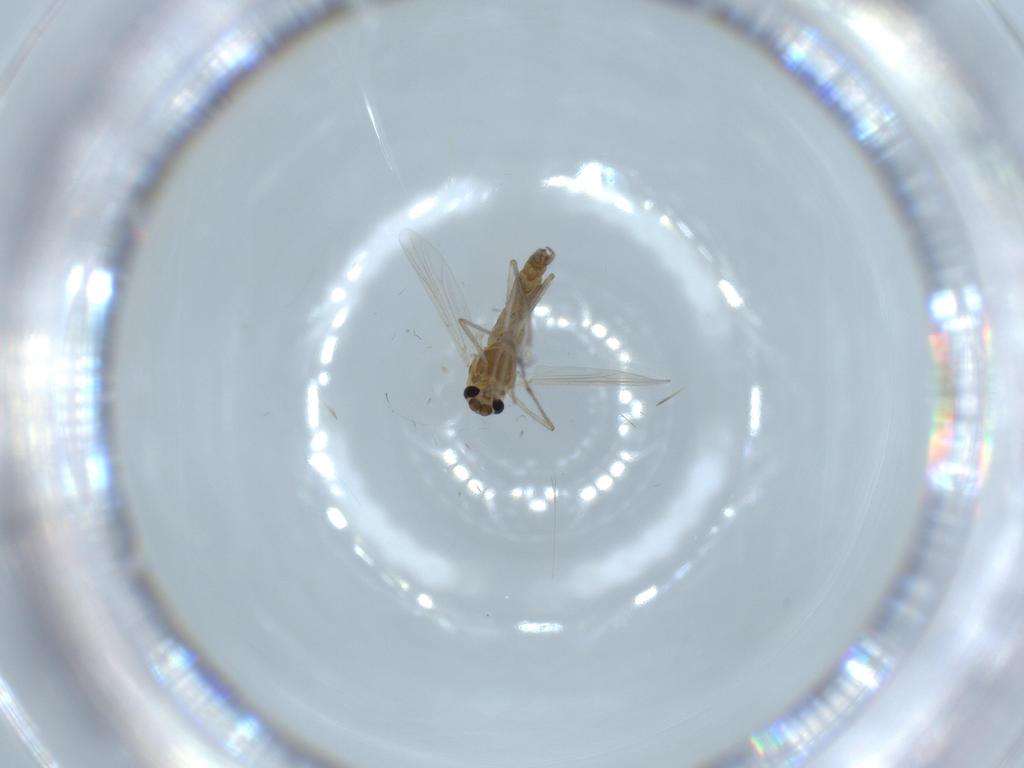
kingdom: Animalia
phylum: Arthropoda
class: Insecta
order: Diptera
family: Chironomidae
